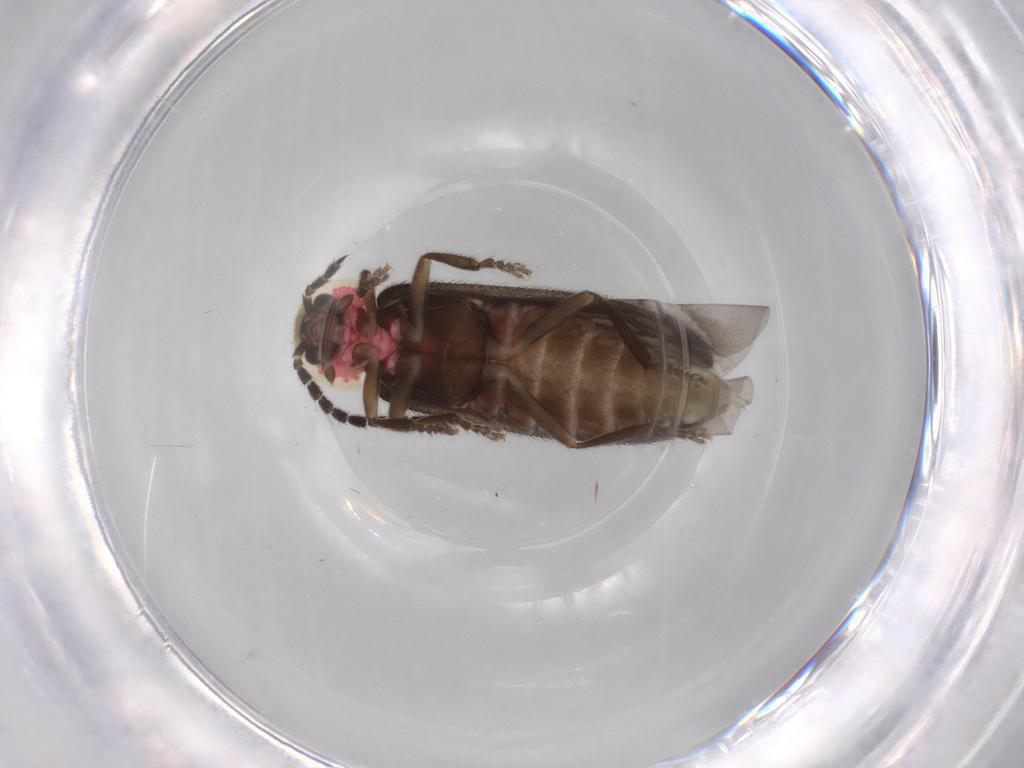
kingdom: Animalia
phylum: Arthropoda
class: Insecta
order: Coleoptera
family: Lampyridae
